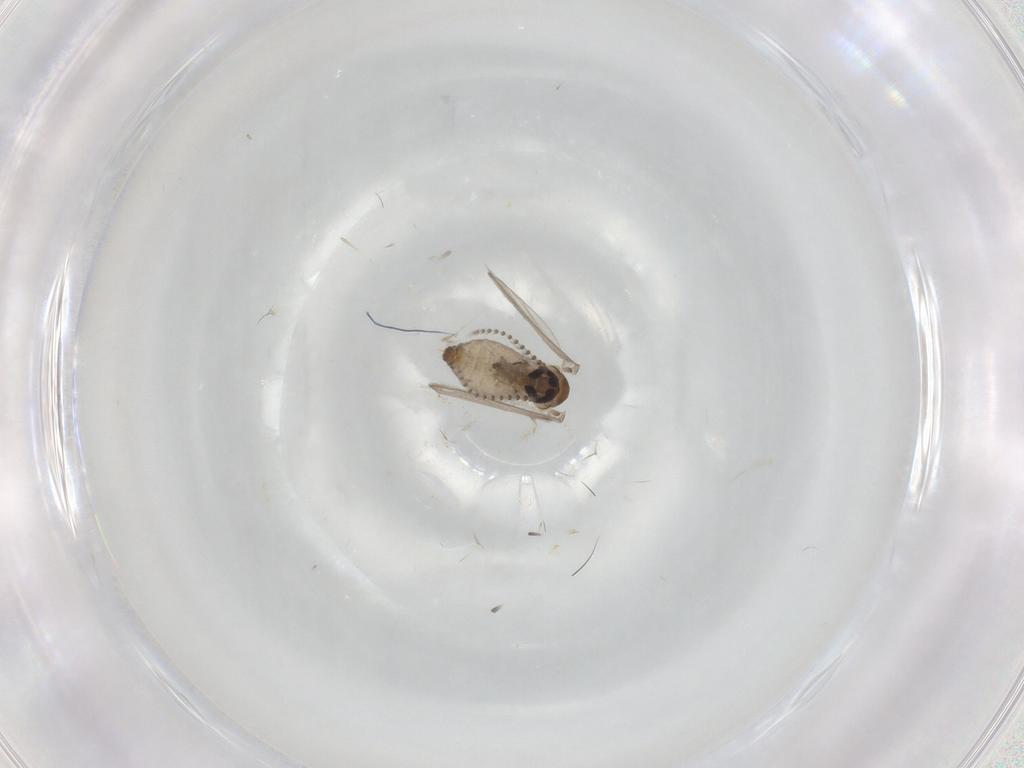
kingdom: Animalia
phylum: Arthropoda
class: Insecta
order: Diptera
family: Psychodidae
